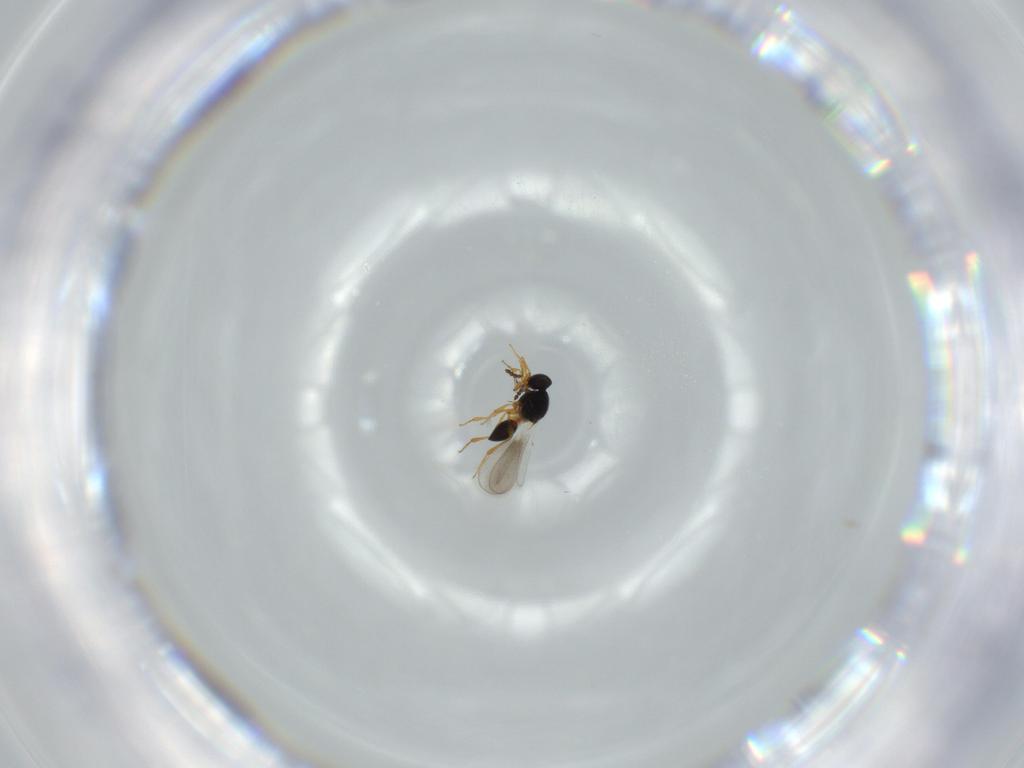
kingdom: Animalia
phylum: Arthropoda
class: Insecta
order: Hymenoptera
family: Platygastridae
